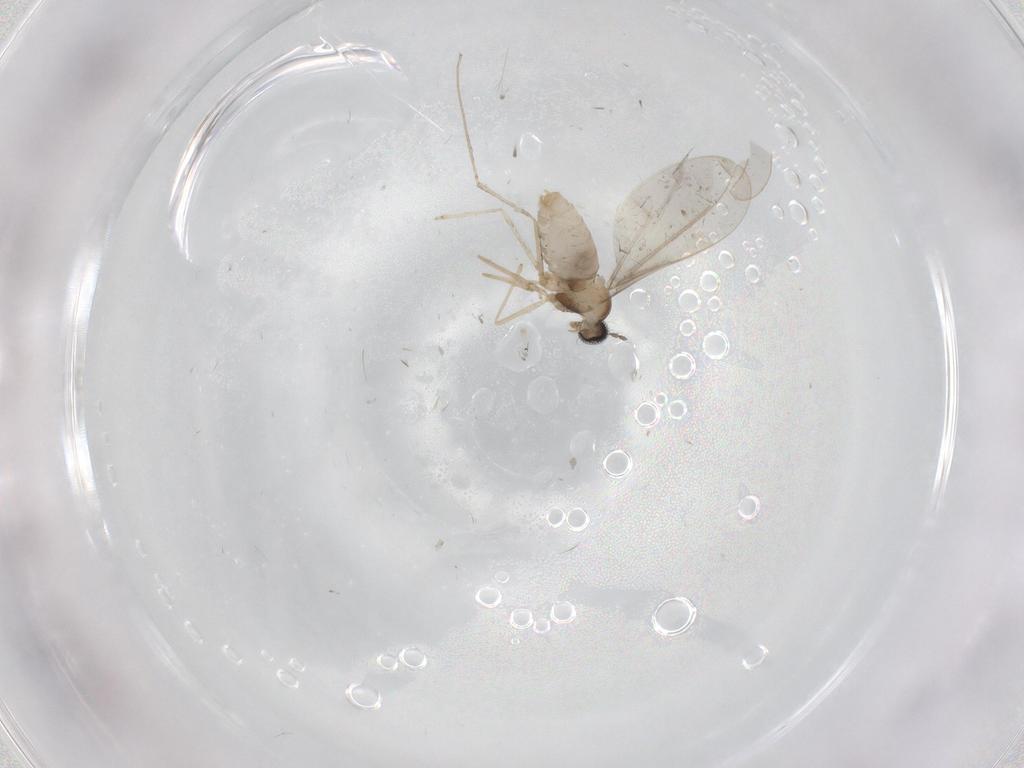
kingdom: Animalia
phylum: Arthropoda
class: Insecta
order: Diptera
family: Cecidomyiidae
